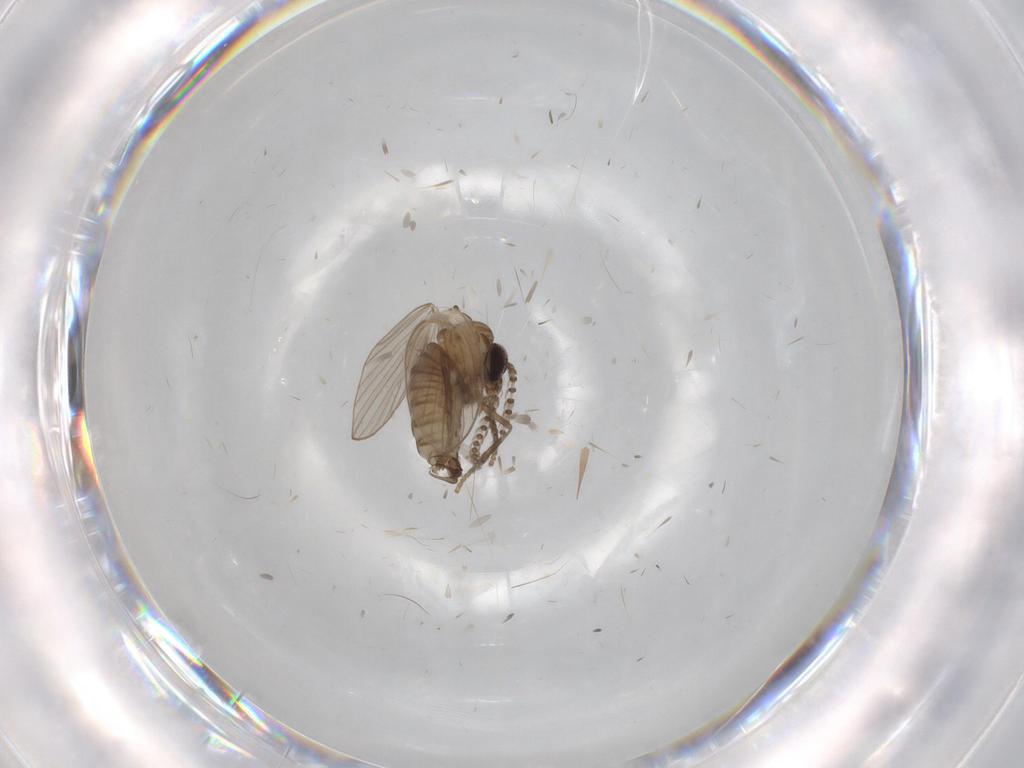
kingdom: Animalia
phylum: Arthropoda
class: Insecta
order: Diptera
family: Psychodidae
